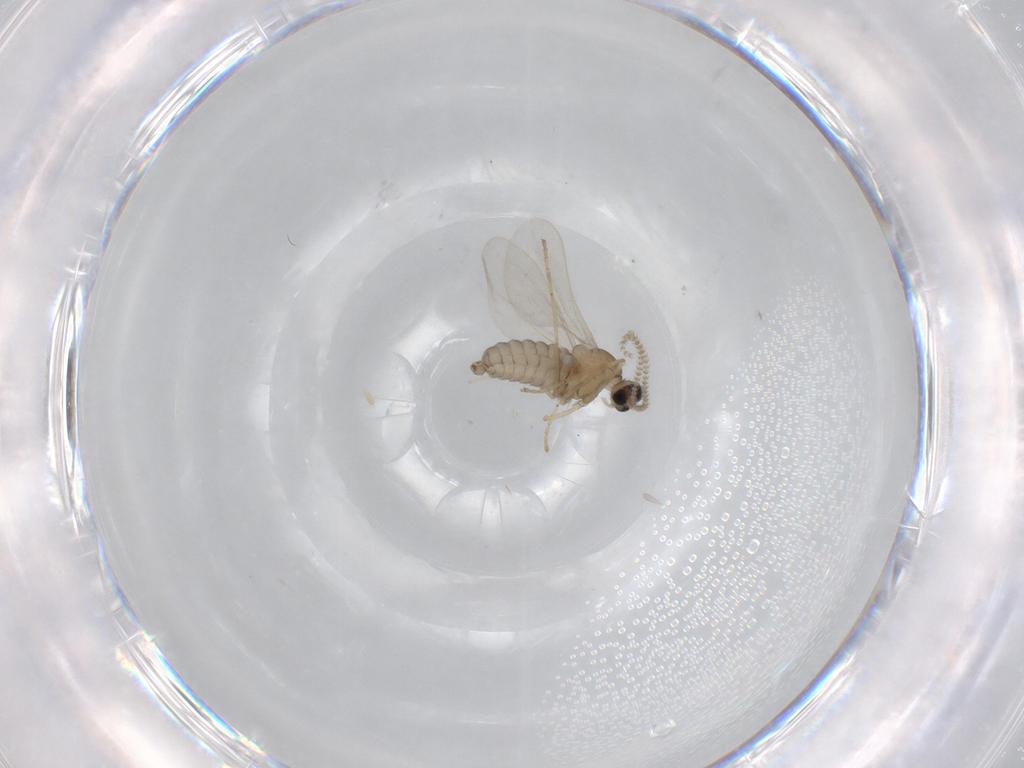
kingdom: Animalia
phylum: Arthropoda
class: Insecta
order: Diptera
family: Cecidomyiidae
